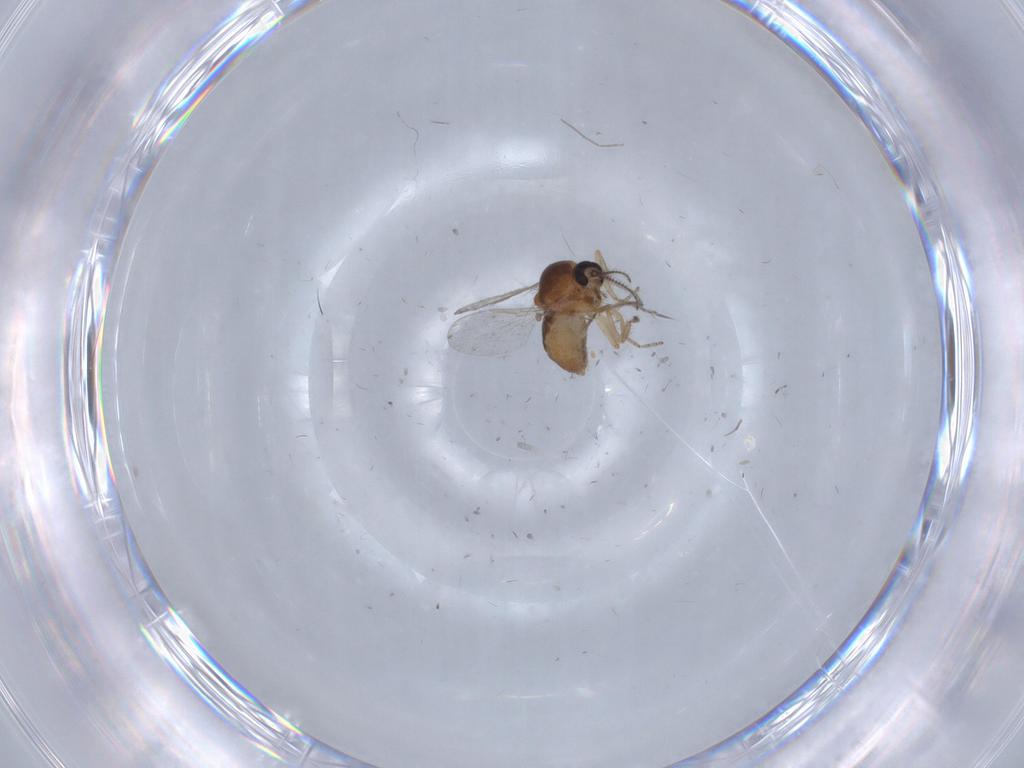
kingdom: Animalia
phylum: Arthropoda
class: Insecta
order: Diptera
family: Ceratopogonidae
